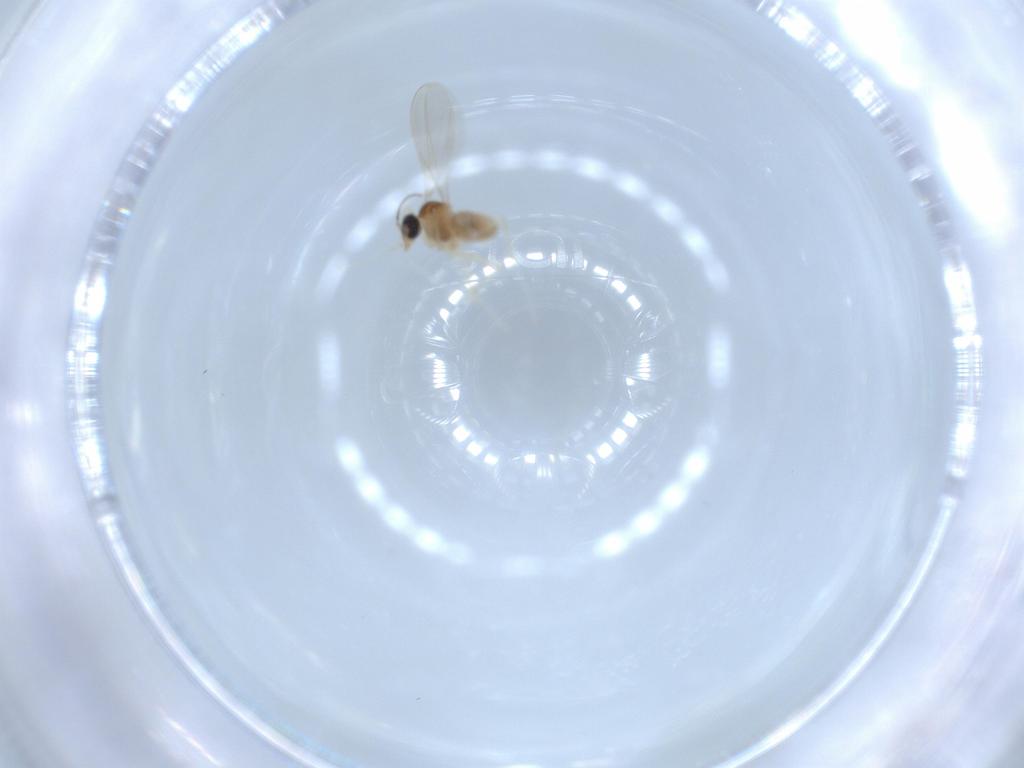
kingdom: Animalia
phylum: Arthropoda
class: Insecta
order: Diptera
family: Cecidomyiidae
